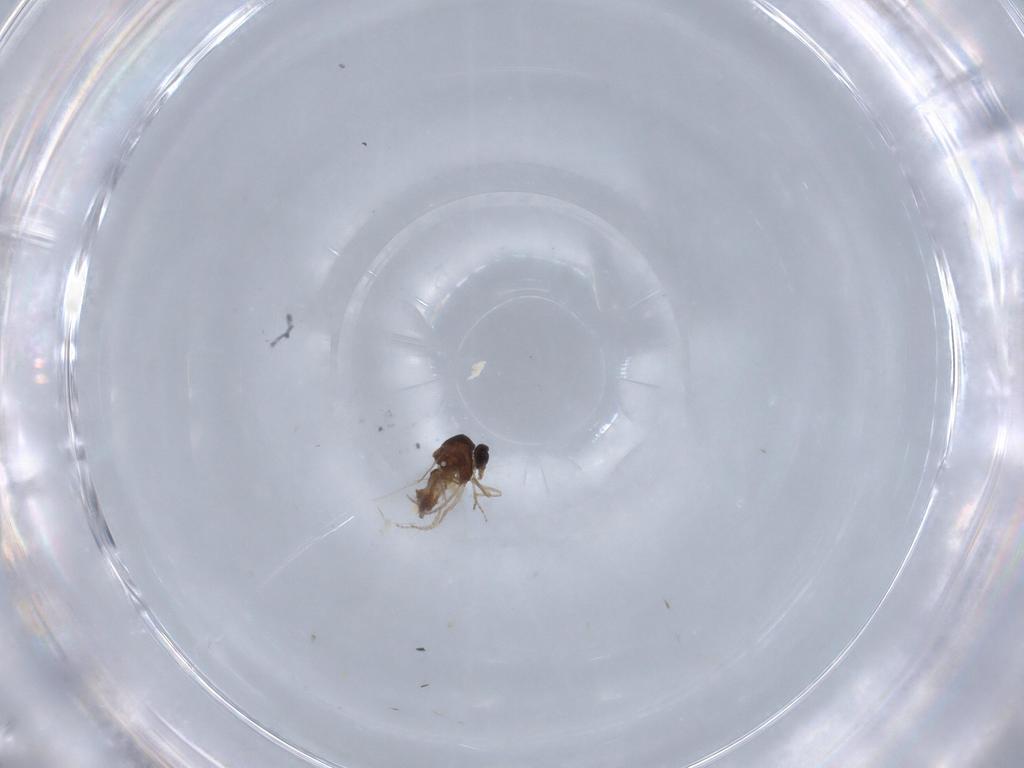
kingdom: Animalia
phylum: Arthropoda
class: Insecta
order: Diptera
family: Ceratopogonidae
